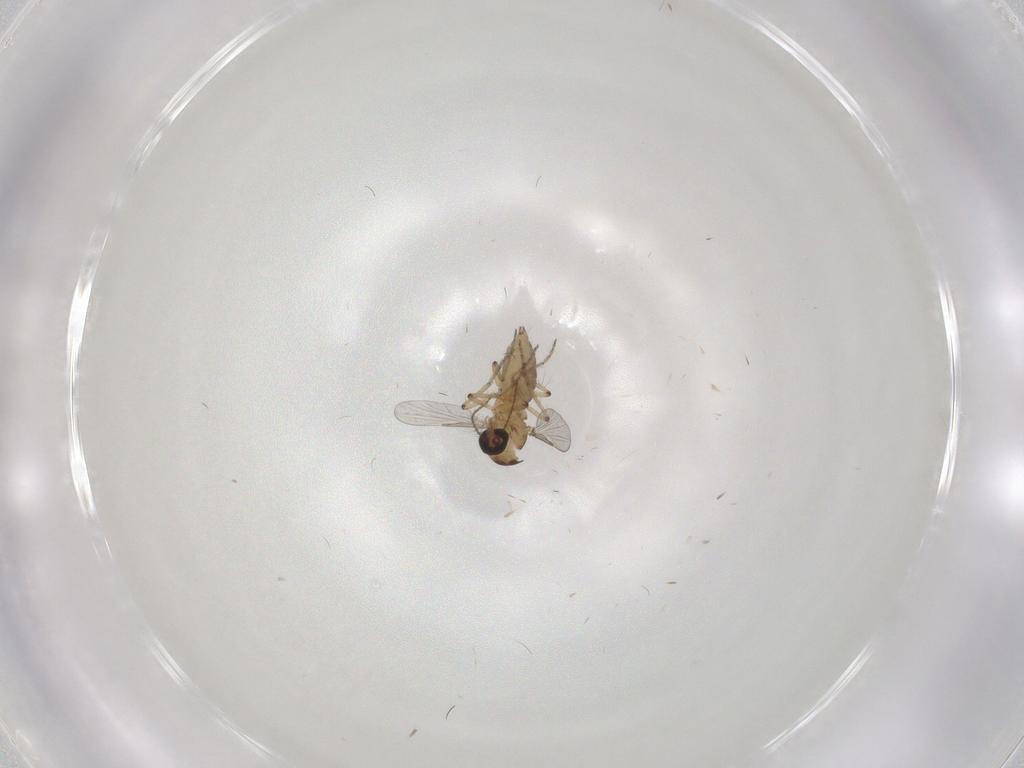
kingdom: Animalia
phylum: Arthropoda
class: Insecta
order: Diptera
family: Ceratopogonidae
